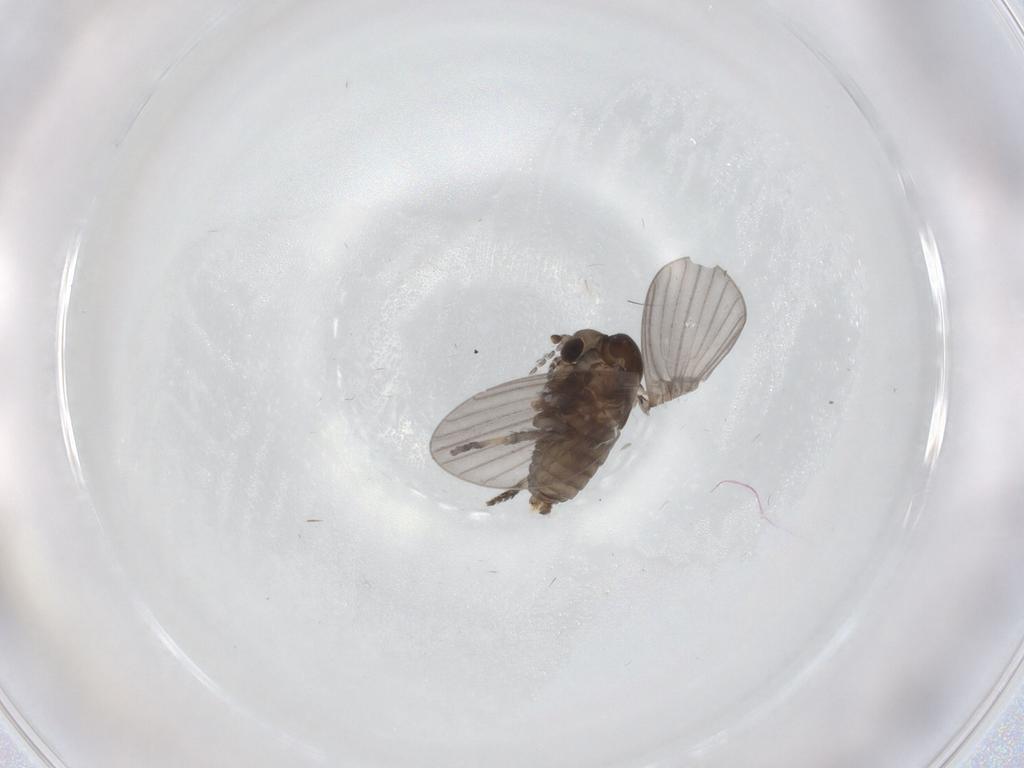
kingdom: Animalia
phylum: Arthropoda
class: Insecta
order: Diptera
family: Psychodidae
